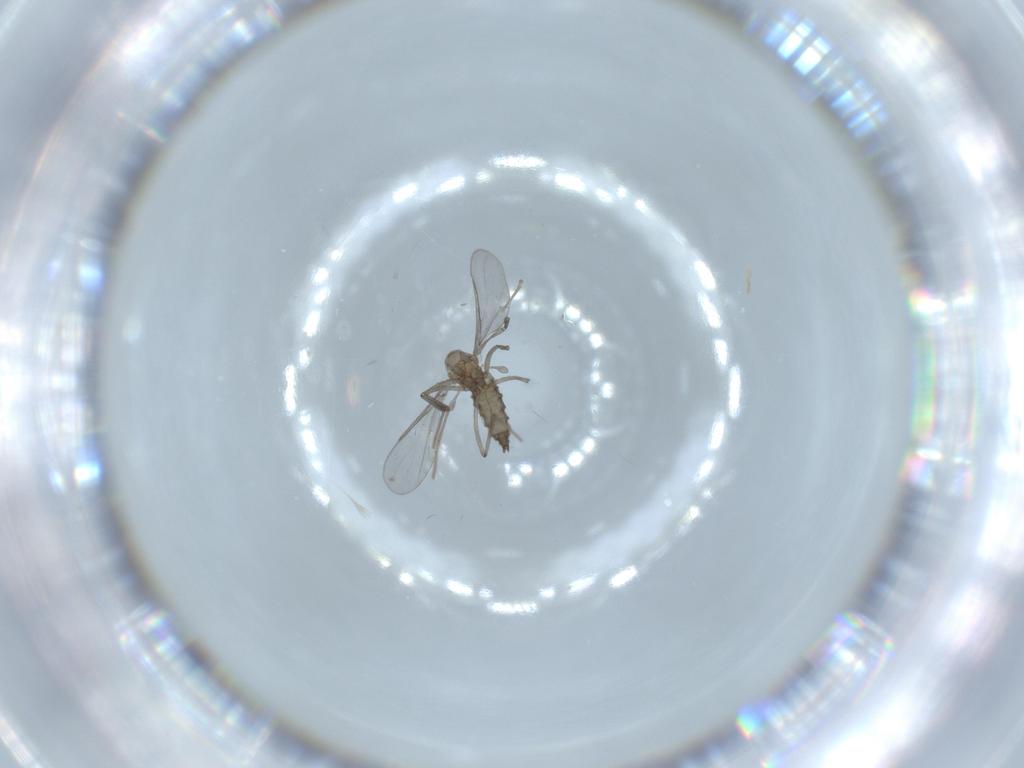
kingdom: Animalia
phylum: Arthropoda
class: Insecta
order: Diptera
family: Cecidomyiidae
